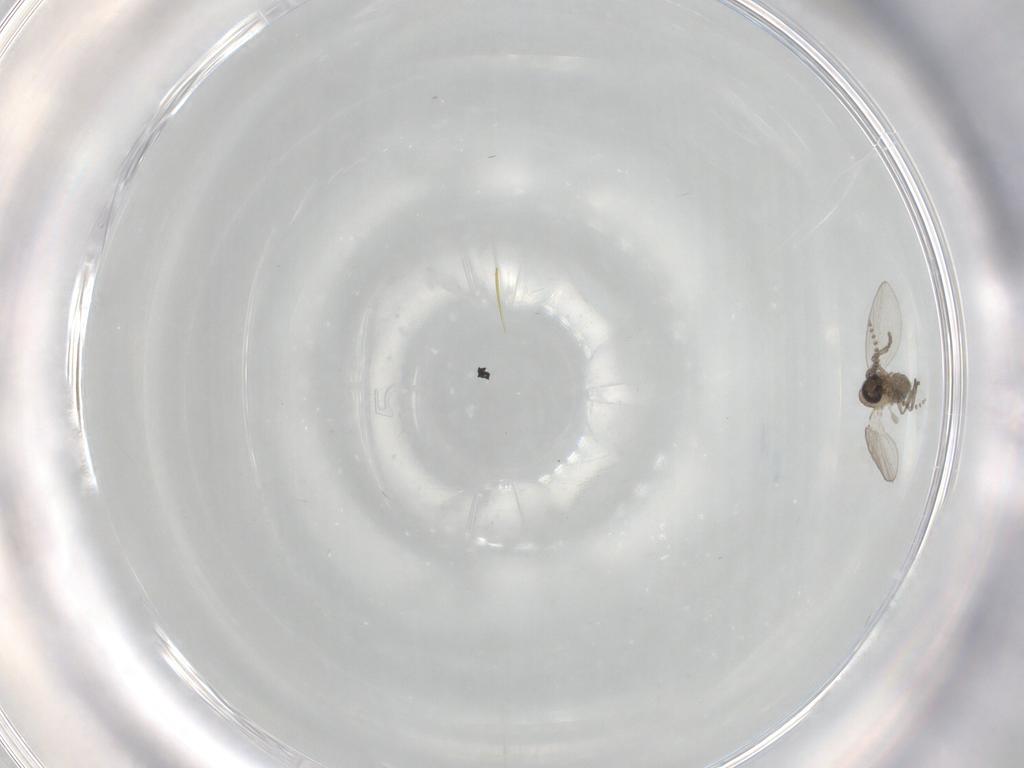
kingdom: Animalia
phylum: Arthropoda
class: Insecta
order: Diptera
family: Psychodidae
